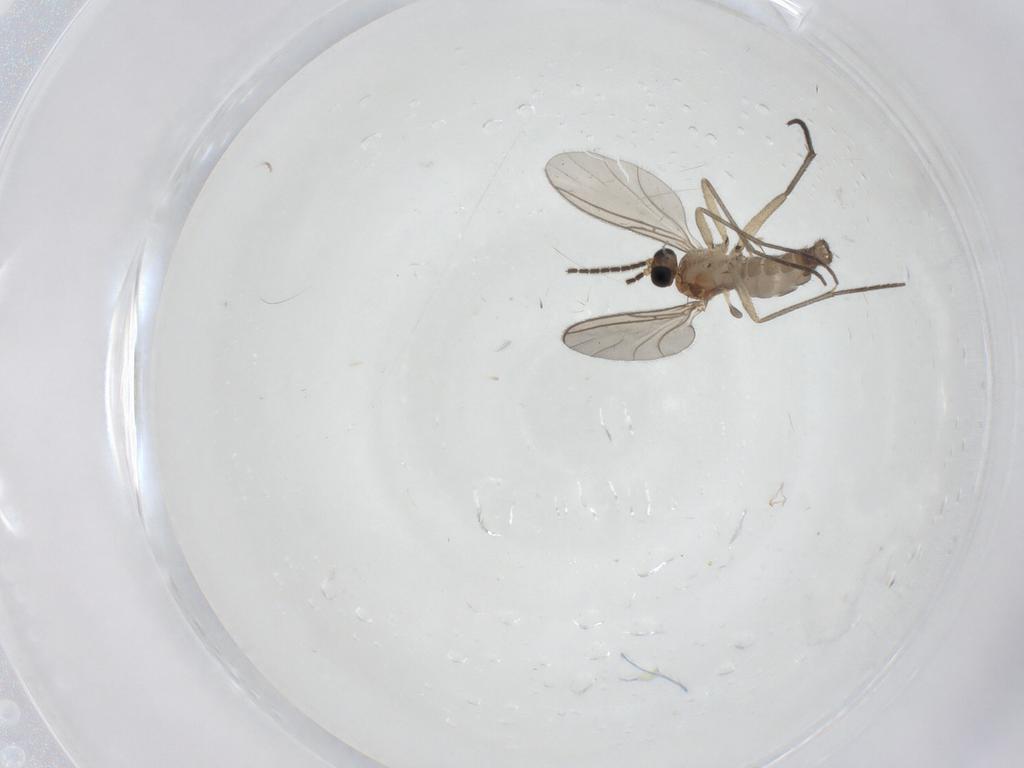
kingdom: Animalia
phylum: Arthropoda
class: Insecta
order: Diptera
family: Sciaridae
